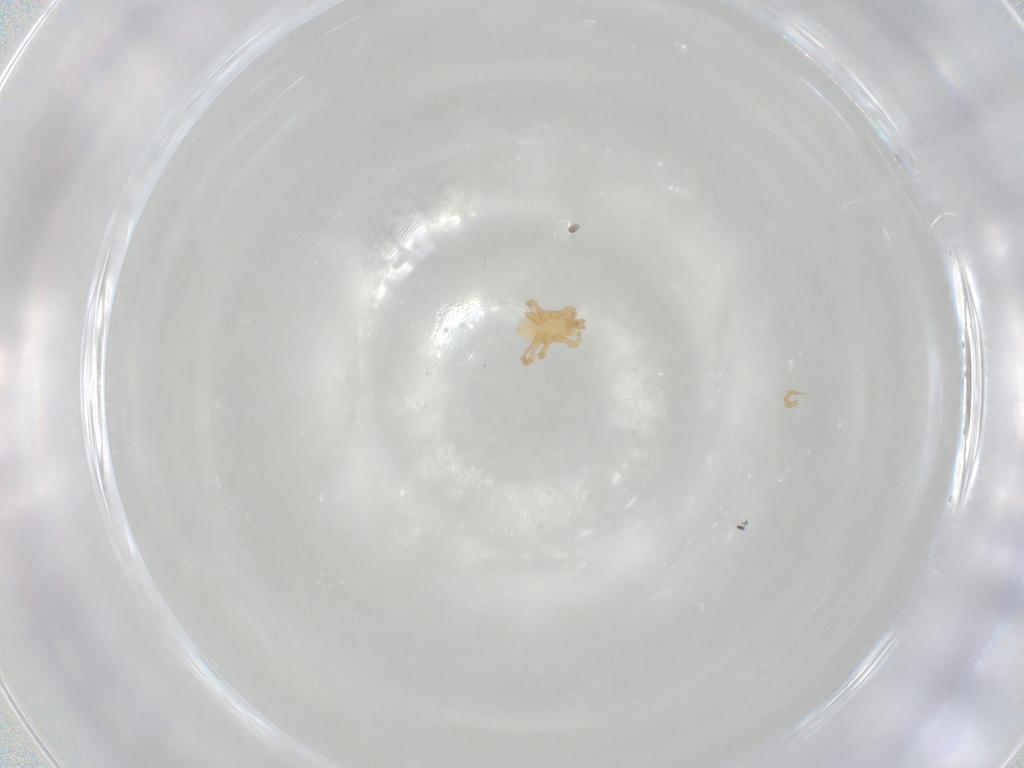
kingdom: Animalia
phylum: Arthropoda
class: Arachnida
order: Mesostigmata
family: Parasitidae
